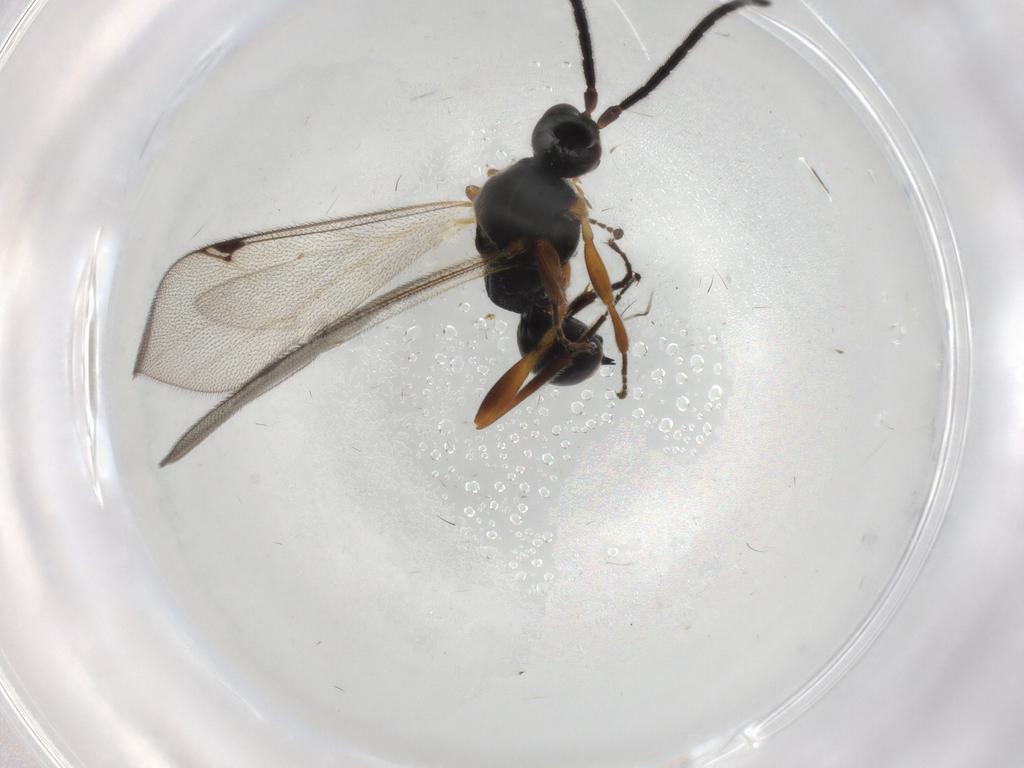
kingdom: Animalia
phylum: Arthropoda
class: Insecta
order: Hymenoptera
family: Proctotrupidae
